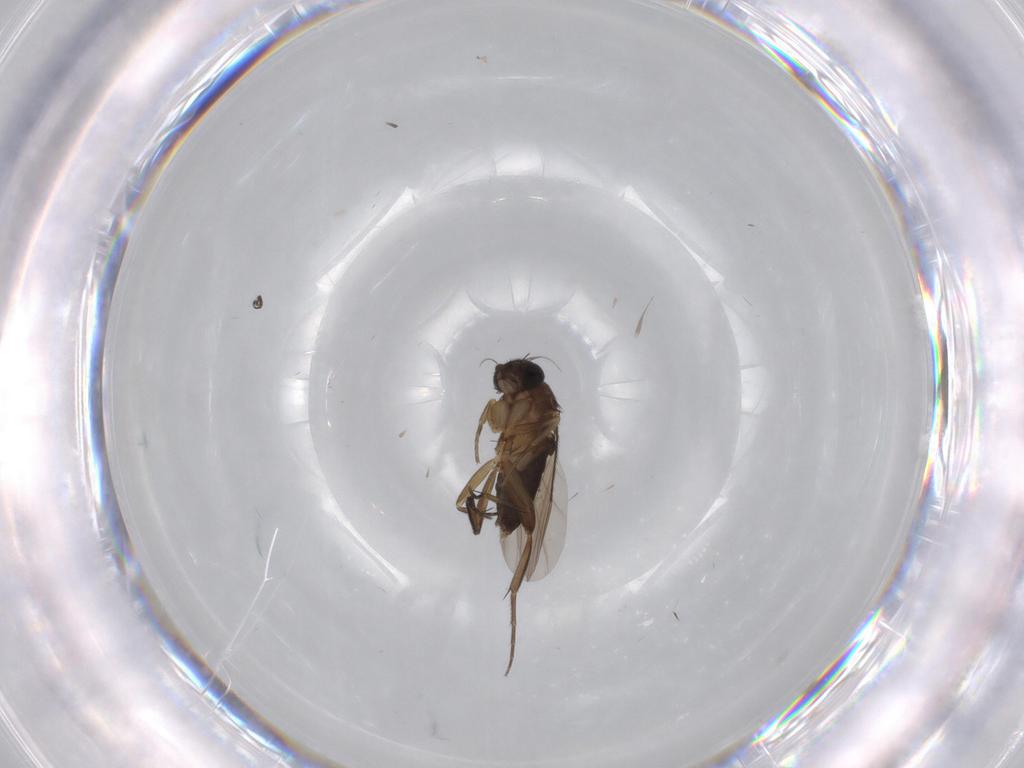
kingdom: Animalia
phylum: Arthropoda
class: Insecta
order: Diptera
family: Phoridae
